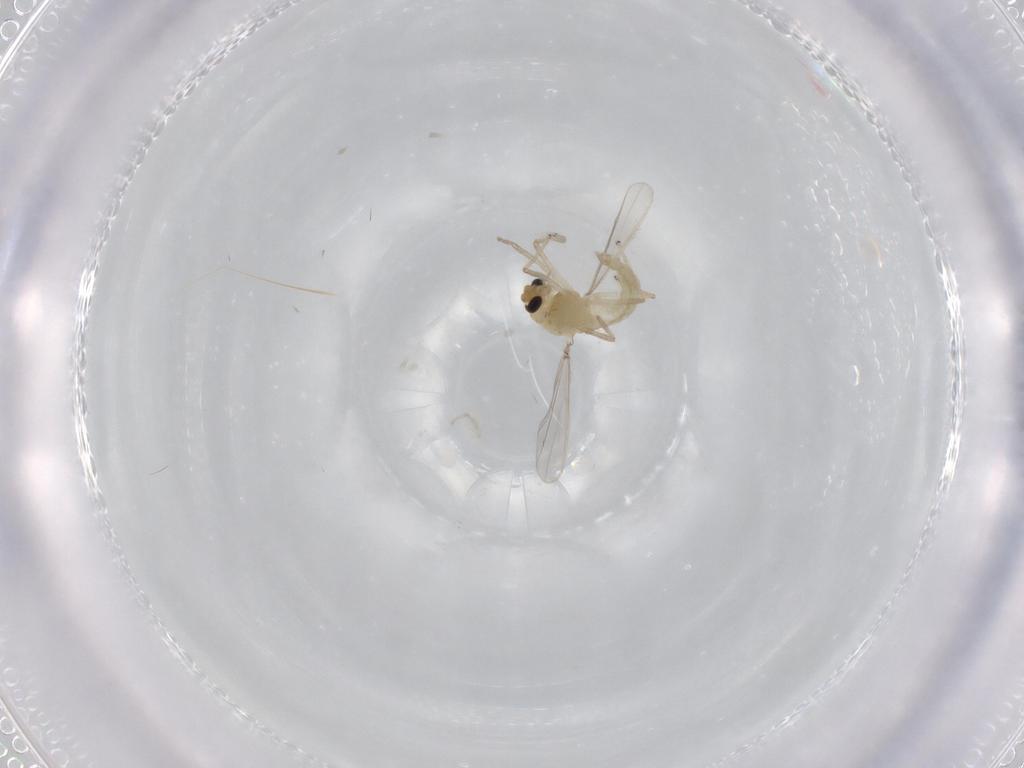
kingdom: Animalia
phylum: Arthropoda
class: Insecta
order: Diptera
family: Chironomidae
